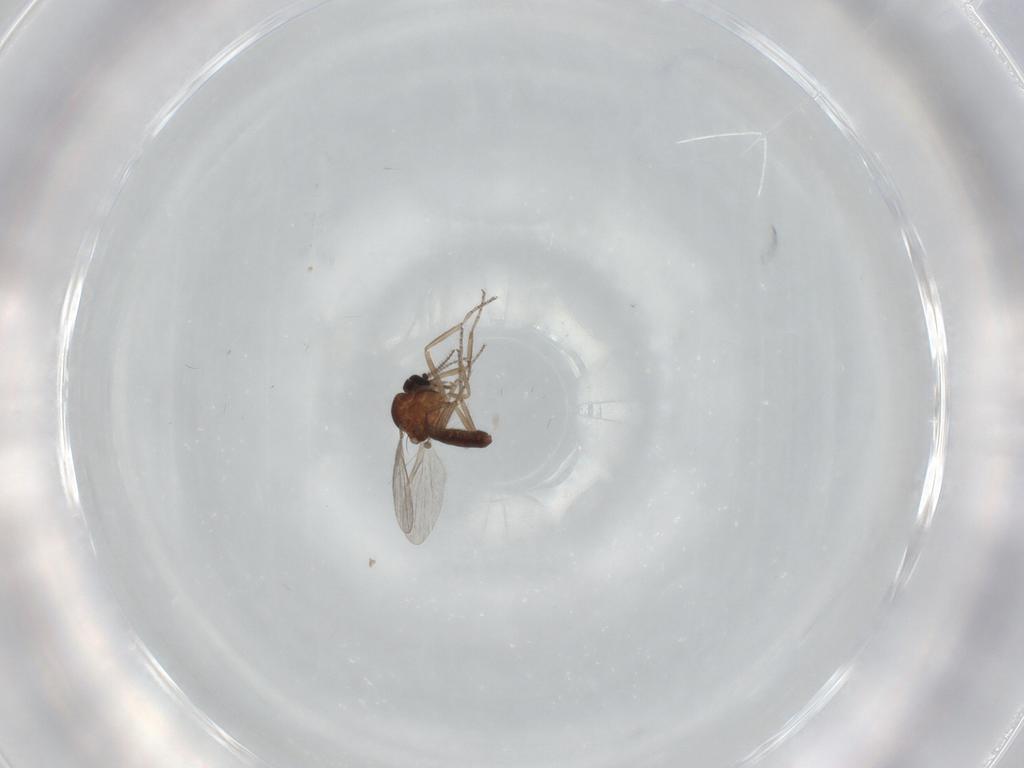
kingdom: Animalia
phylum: Arthropoda
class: Insecta
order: Diptera
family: Ceratopogonidae
